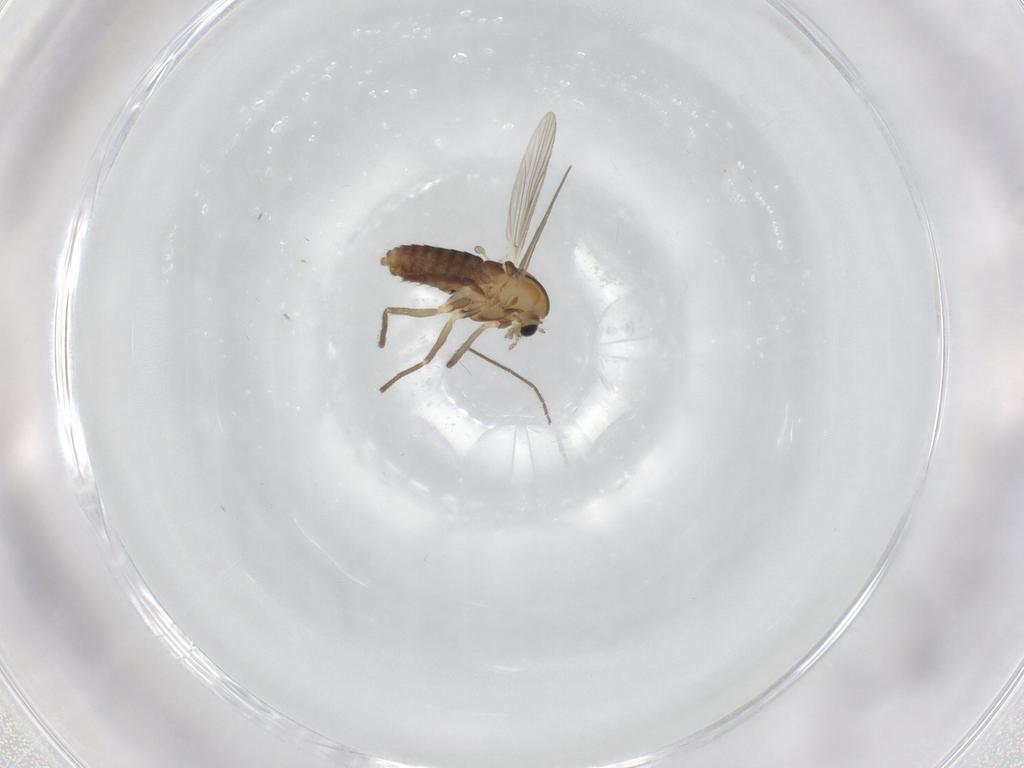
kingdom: Animalia
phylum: Arthropoda
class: Insecta
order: Diptera
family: Chironomidae
